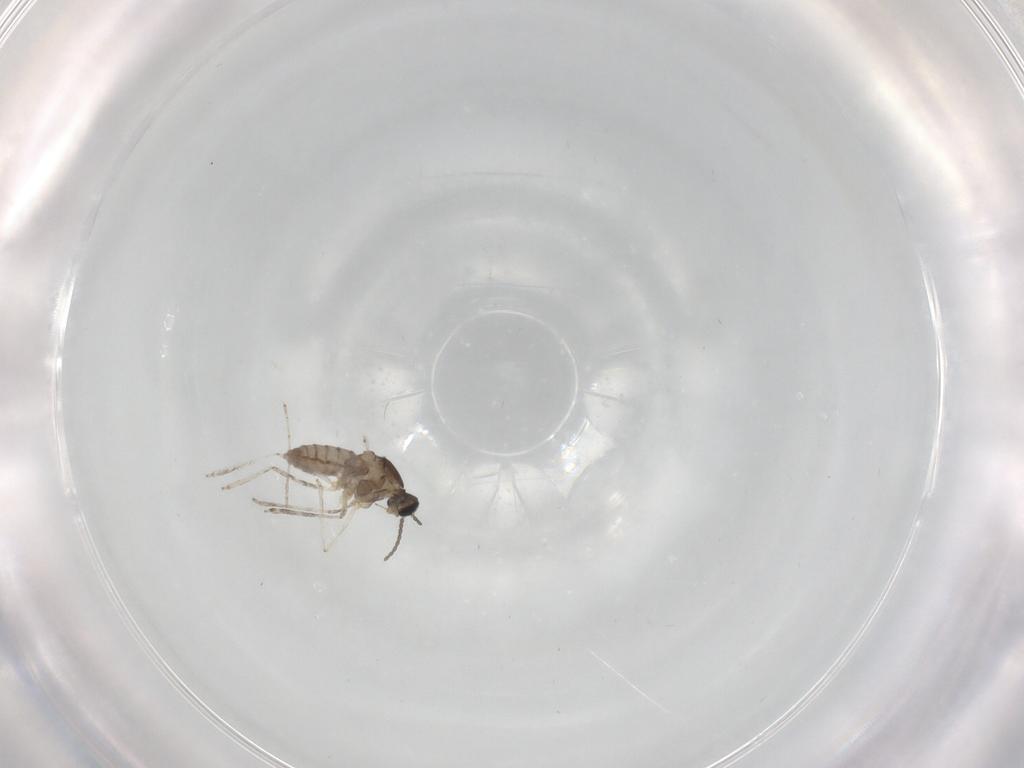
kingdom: Animalia
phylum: Arthropoda
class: Insecta
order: Diptera
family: Cecidomyiidae
